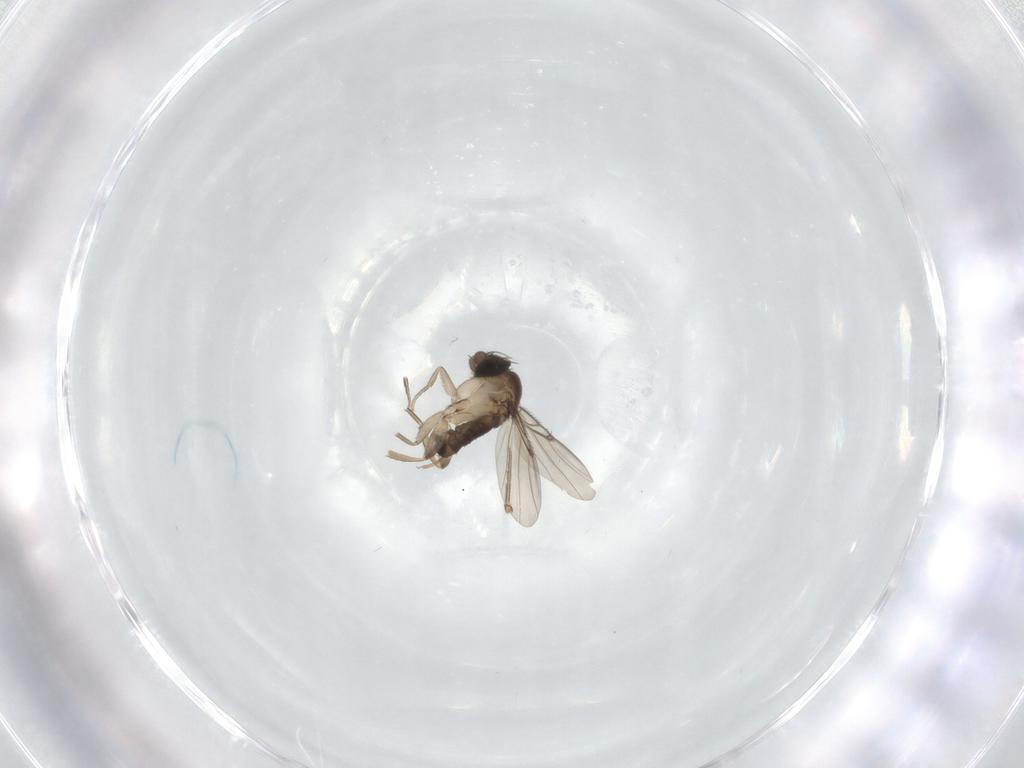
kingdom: Animalia
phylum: Arthropoda
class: Insecta
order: Diptera
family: Phoridae
